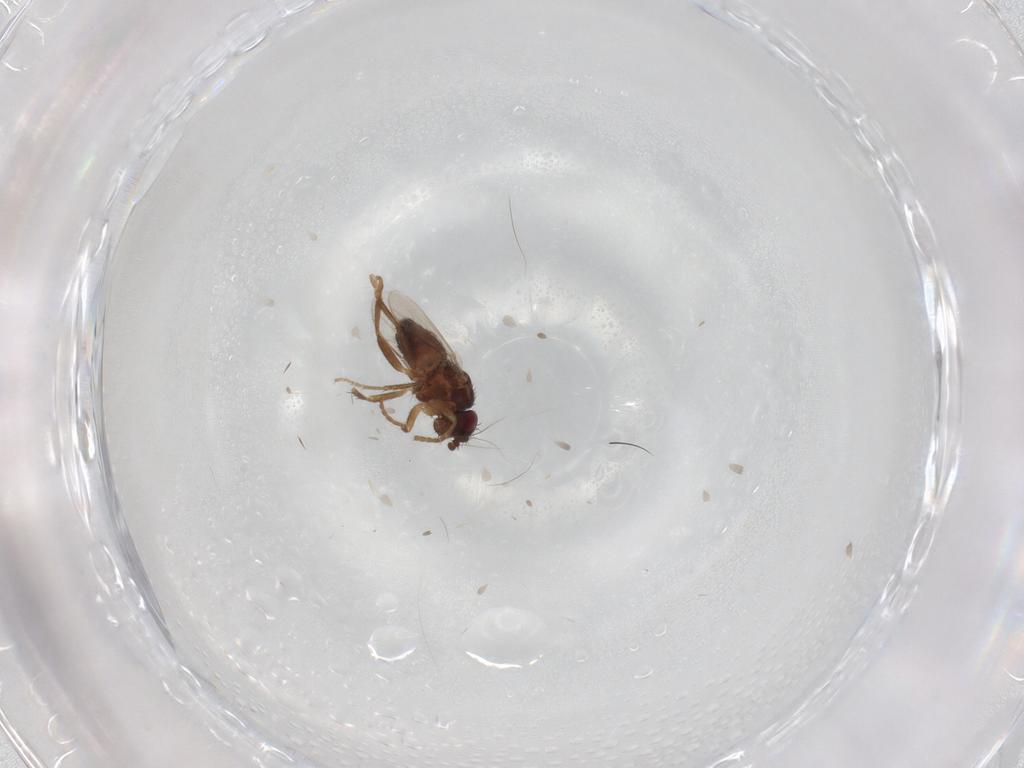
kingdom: Animalia
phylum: Arthropoda
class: Insecta
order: Diptera
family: Sphaeroceridae
